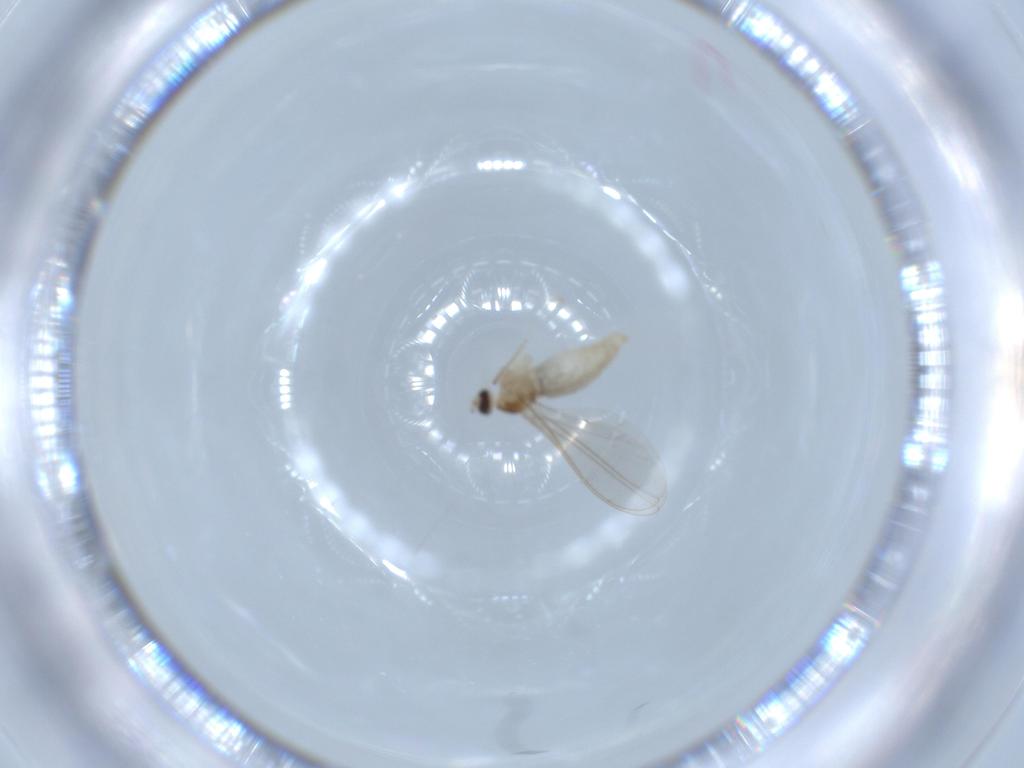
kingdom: Animalia
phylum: Arthropoda
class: Insecta
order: Diptera
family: Cecidomyiidae
